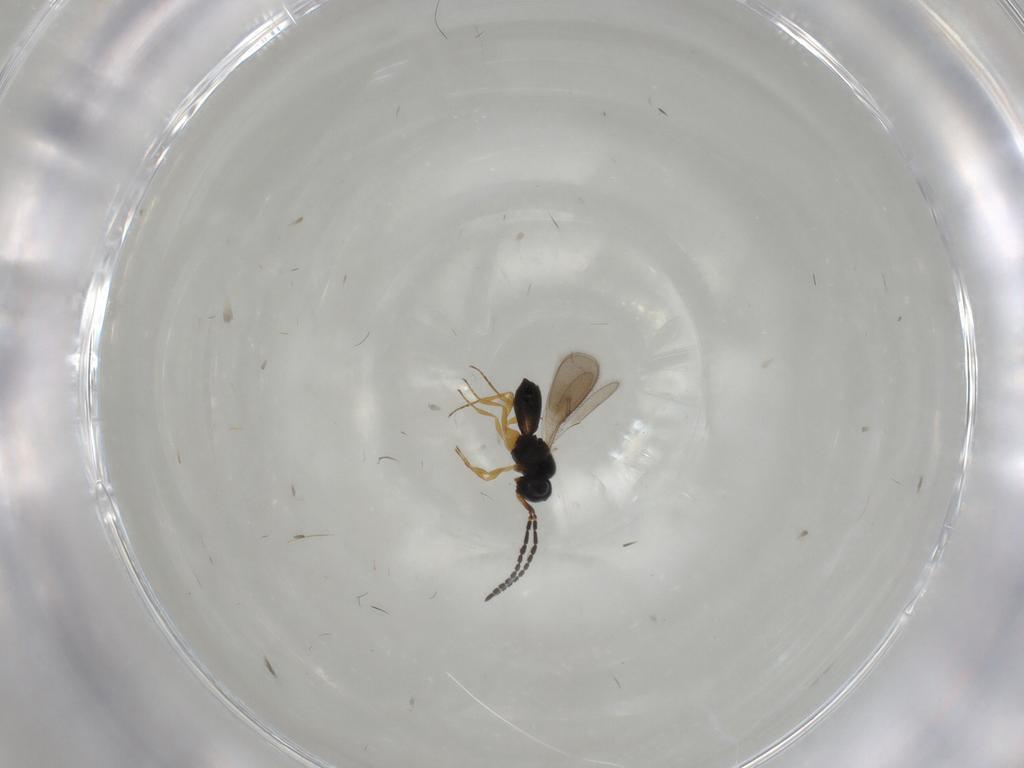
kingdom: Animalia
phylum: Arthropoda
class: Insecta
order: Hymenoptera
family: Scelionidae
